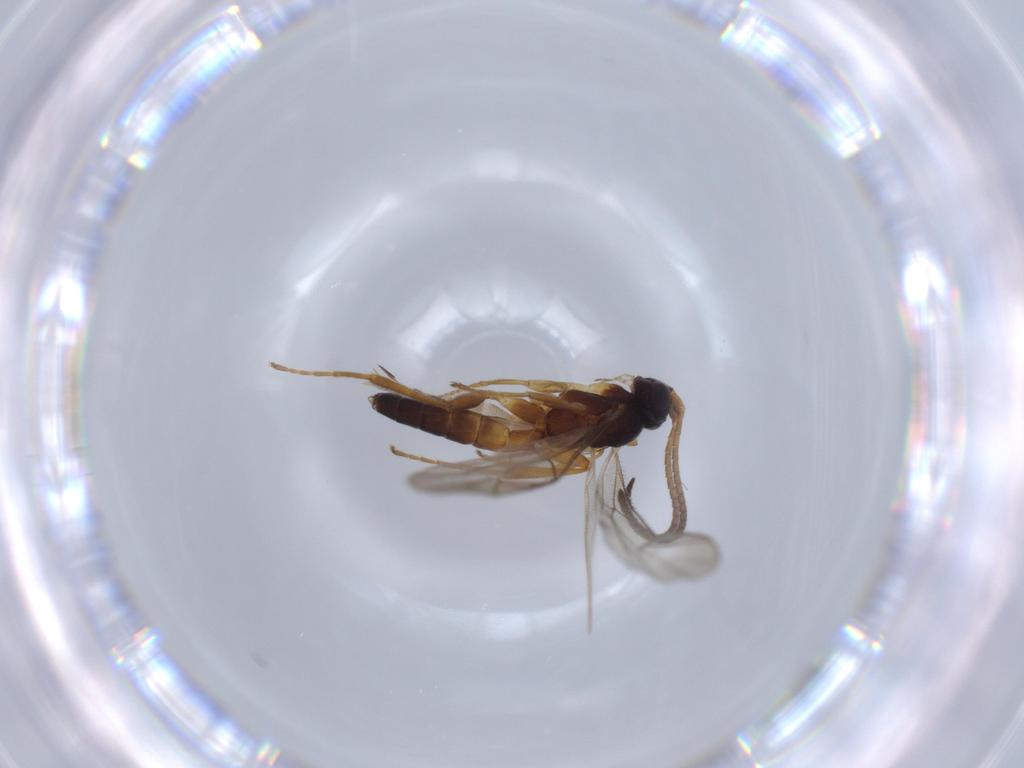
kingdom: Animalia
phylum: Arthropoda
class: Insecta
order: Hymenoptera
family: Ichneumonidae
